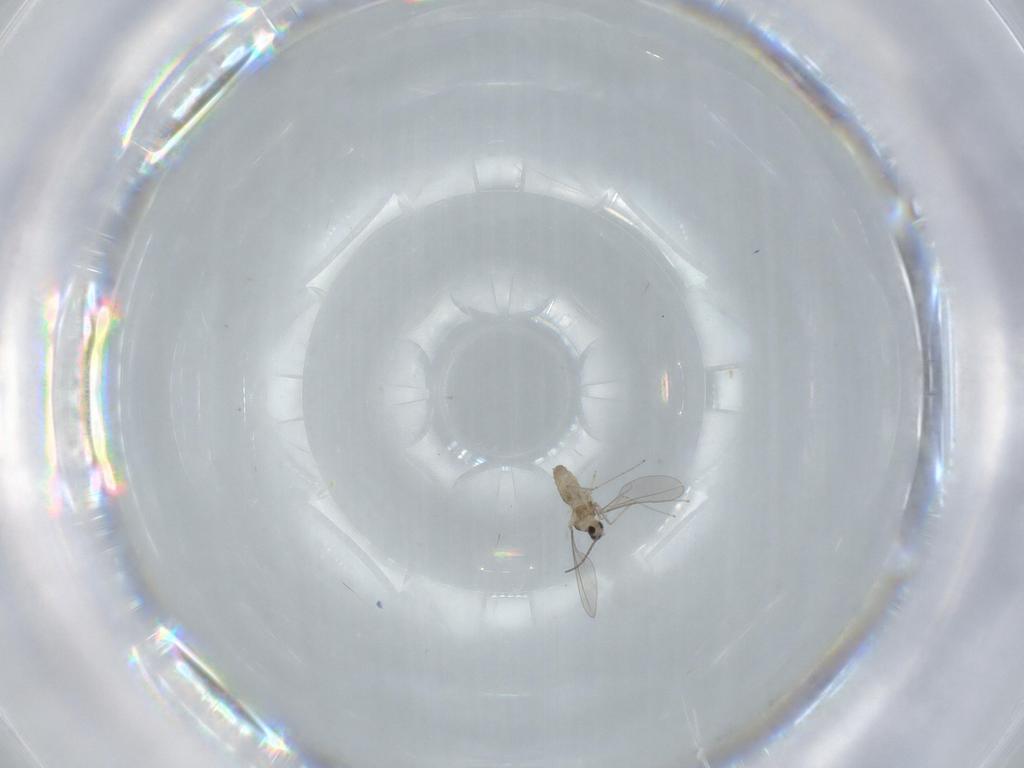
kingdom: Animalia
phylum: Arthropoda
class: Insecta
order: Diptera
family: Cecidomyiidae
